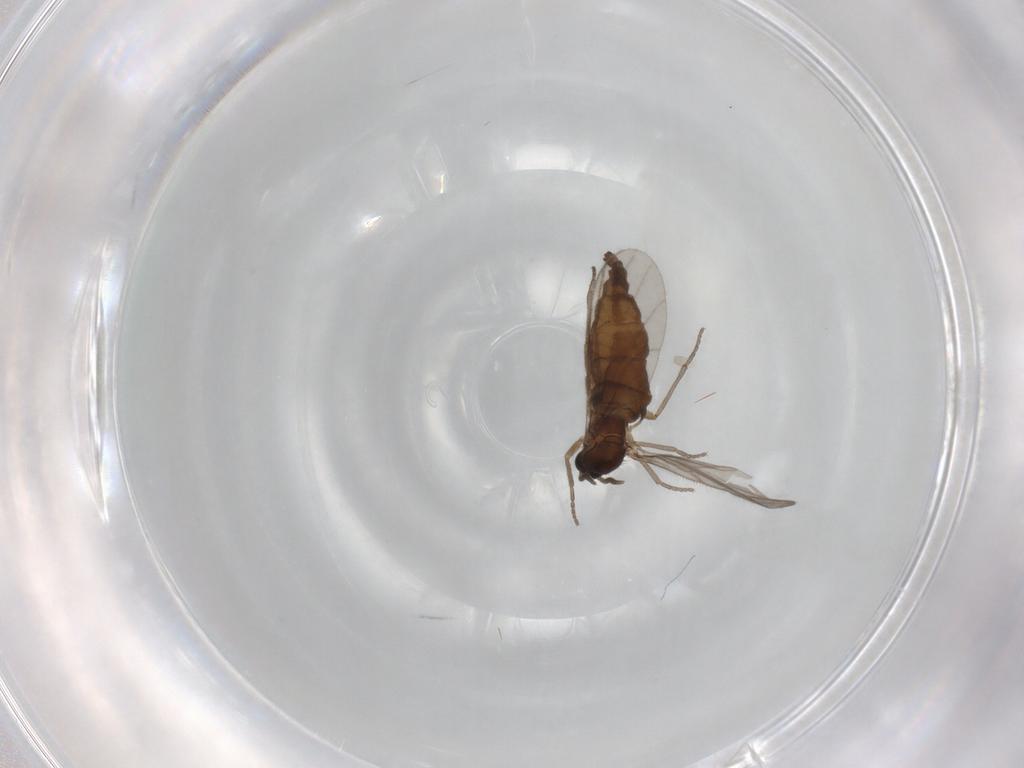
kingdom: Animalia
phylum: Arthropoda
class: Insecta
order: Diptera
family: Sciaridae
